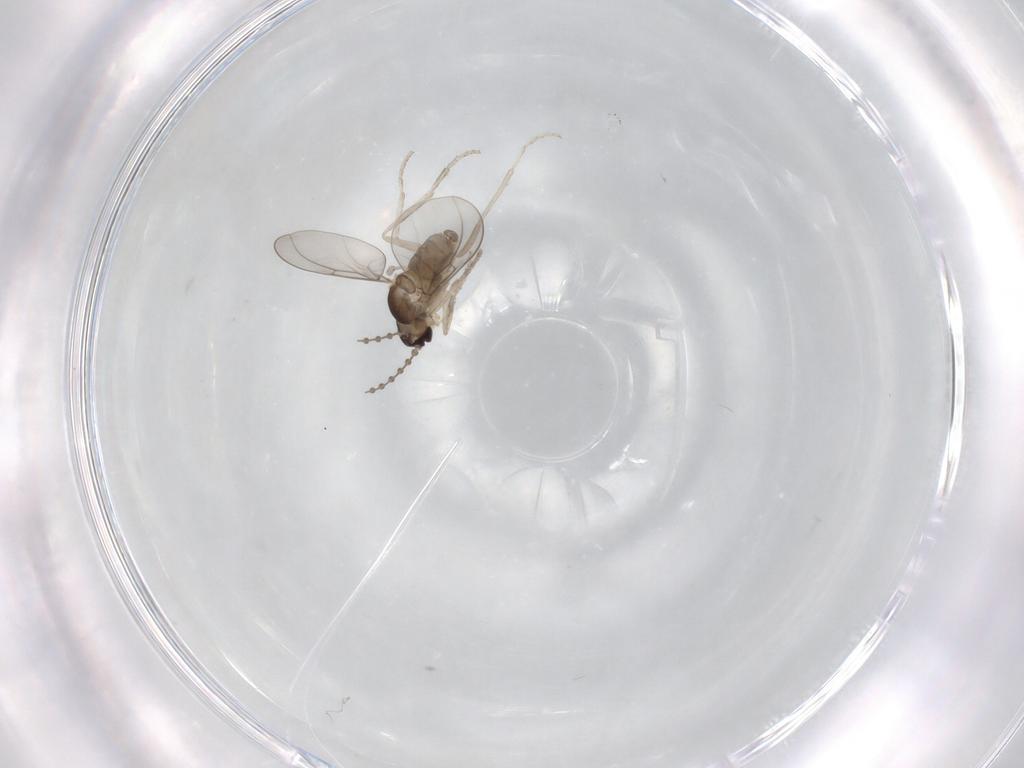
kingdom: Animalia
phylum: Arthropoda
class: Insecta
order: Diptera
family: Cecidomyiidae
